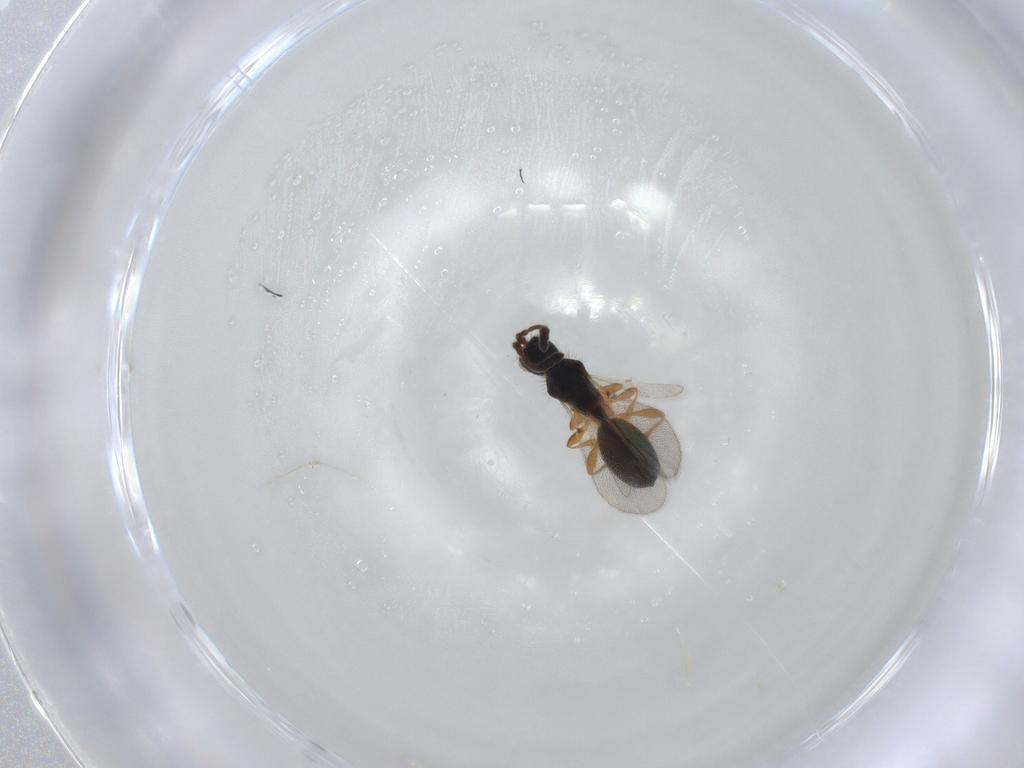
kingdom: Animalia
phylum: Arthropoda
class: Insecta
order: Hymenoptera
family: Diapriidae
